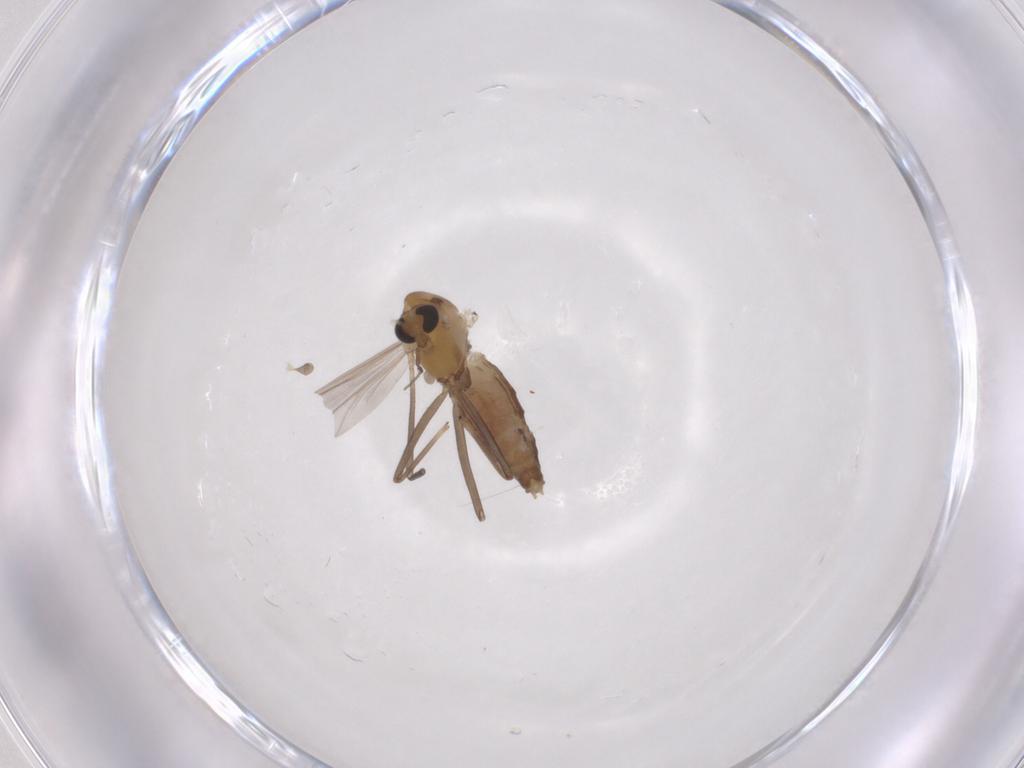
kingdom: Animalia
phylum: Arthropoda
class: Insecta
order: Diptera
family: Chironomidae
